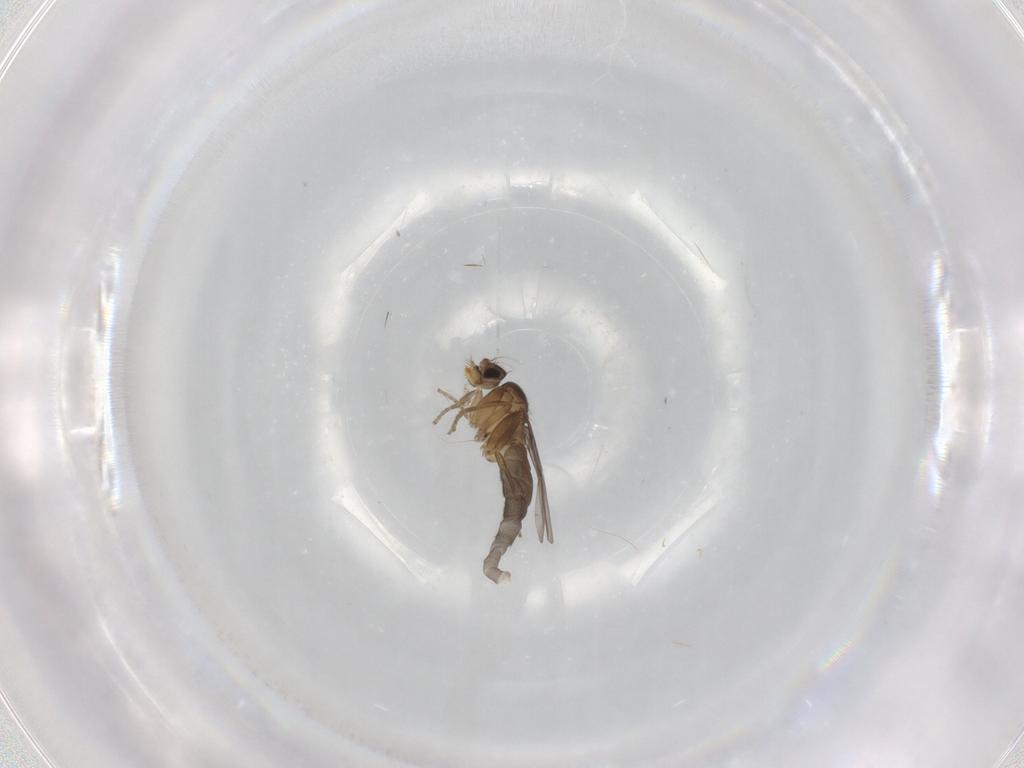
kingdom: Animalia
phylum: Arthropoda
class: Insecta
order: Diptera
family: Phoridae
